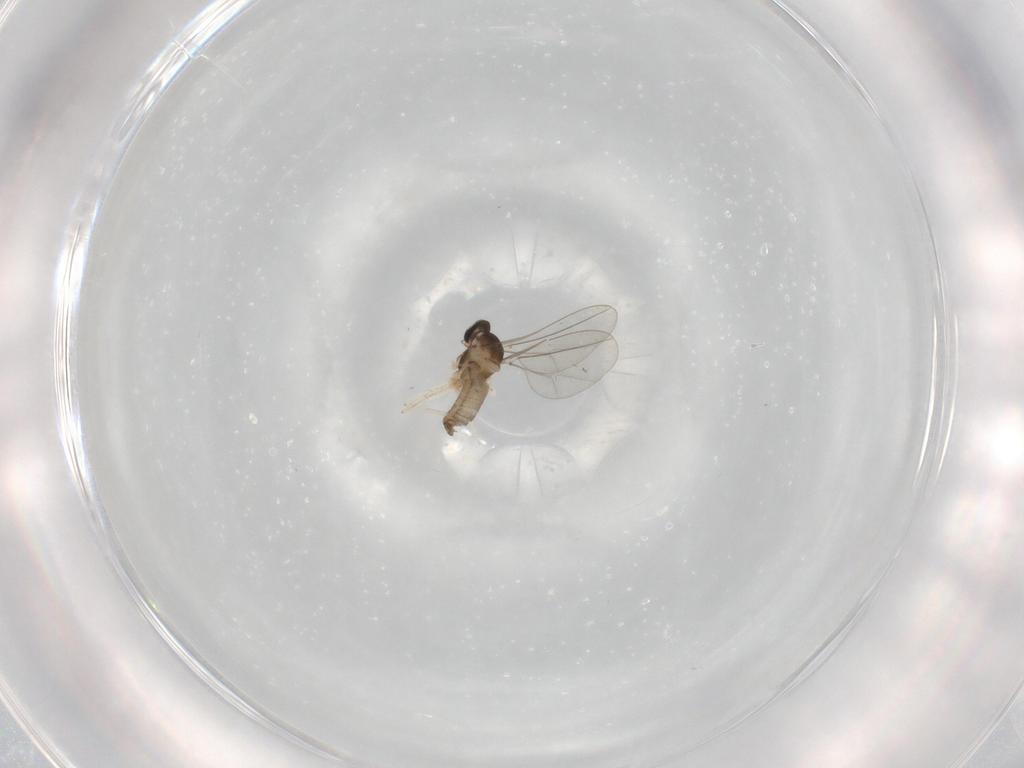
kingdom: Animalia
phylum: Arthropoda
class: Insecta
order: Diptera
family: Cecidomyiidae
